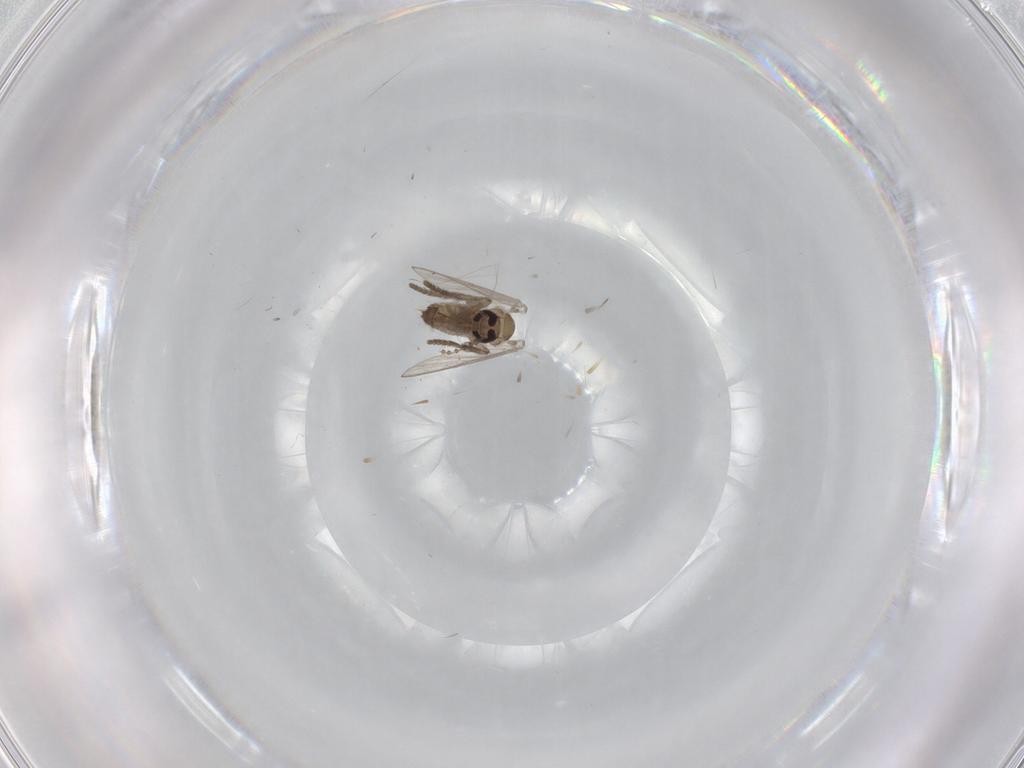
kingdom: Animalia
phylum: Arthropoda
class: Insecta
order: Diptera
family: Psychodidae
